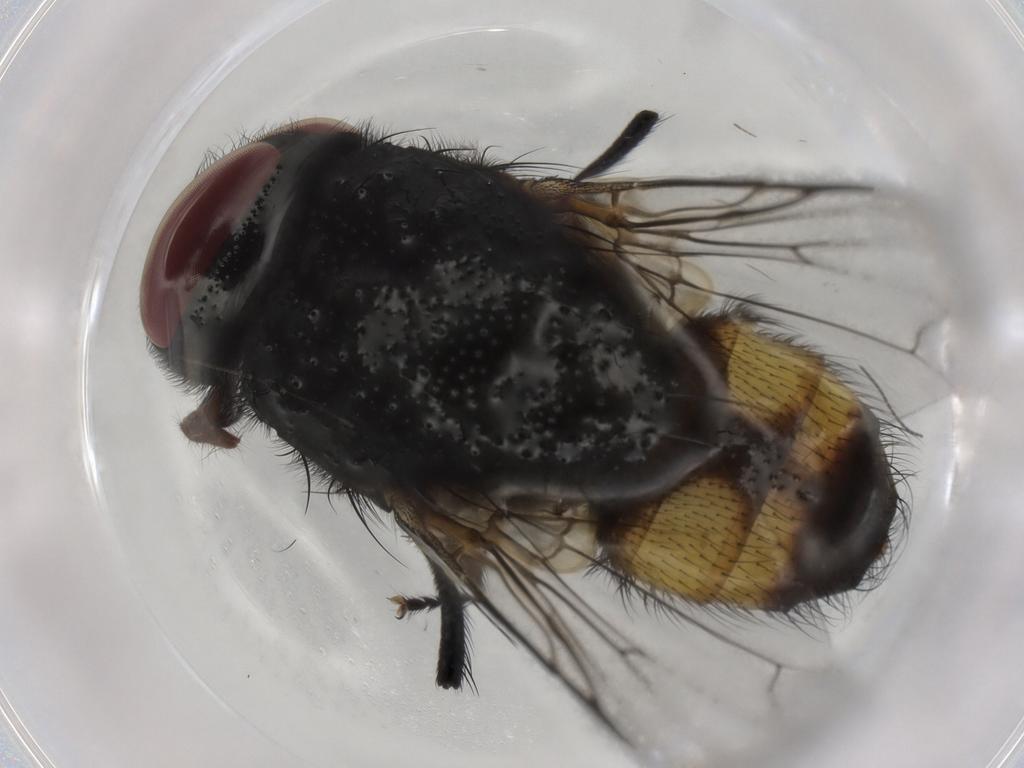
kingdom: Animalia
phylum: Arthropoda
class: Insecta
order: Diptera
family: Muscidae
